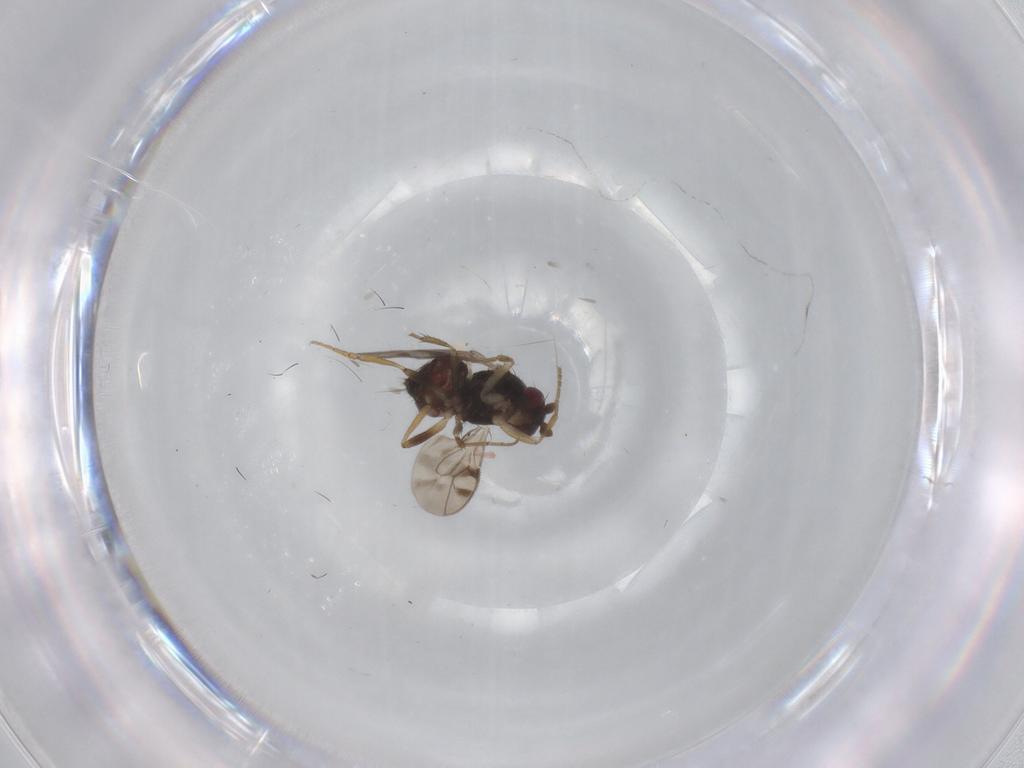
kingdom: Animalia
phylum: Arthropoda
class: Insecta
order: Diptera
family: Sphaeroceridae
